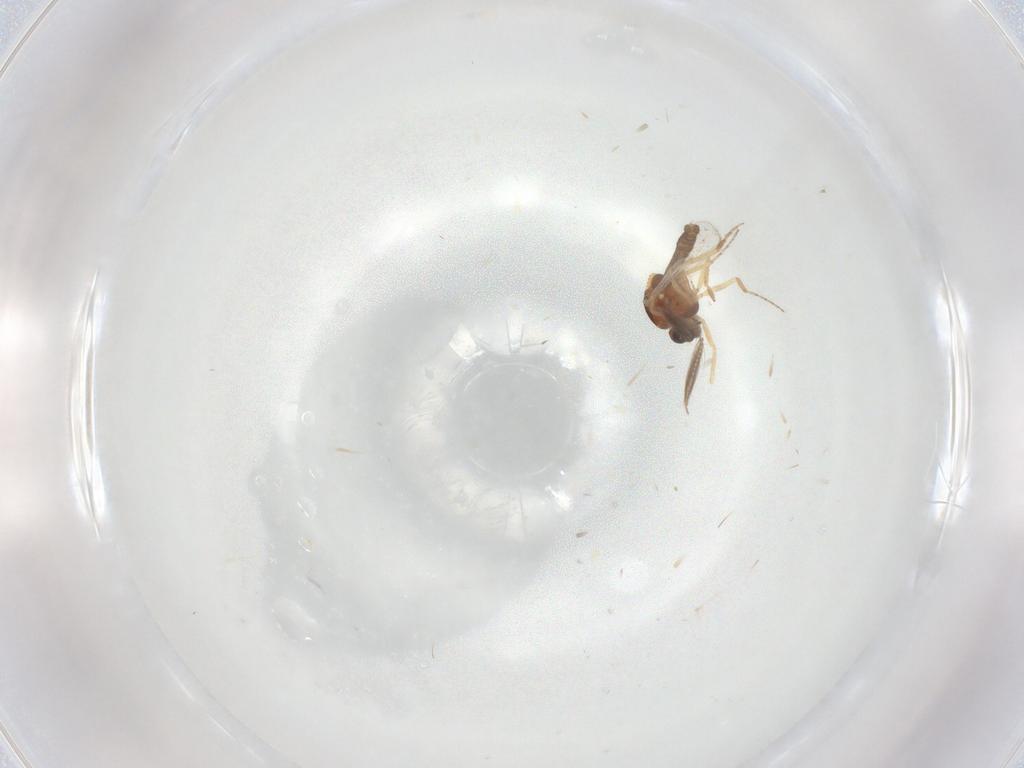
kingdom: Animalia
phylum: Arthropoda
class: Insecta
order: Diptera
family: Ceratopogonidae
